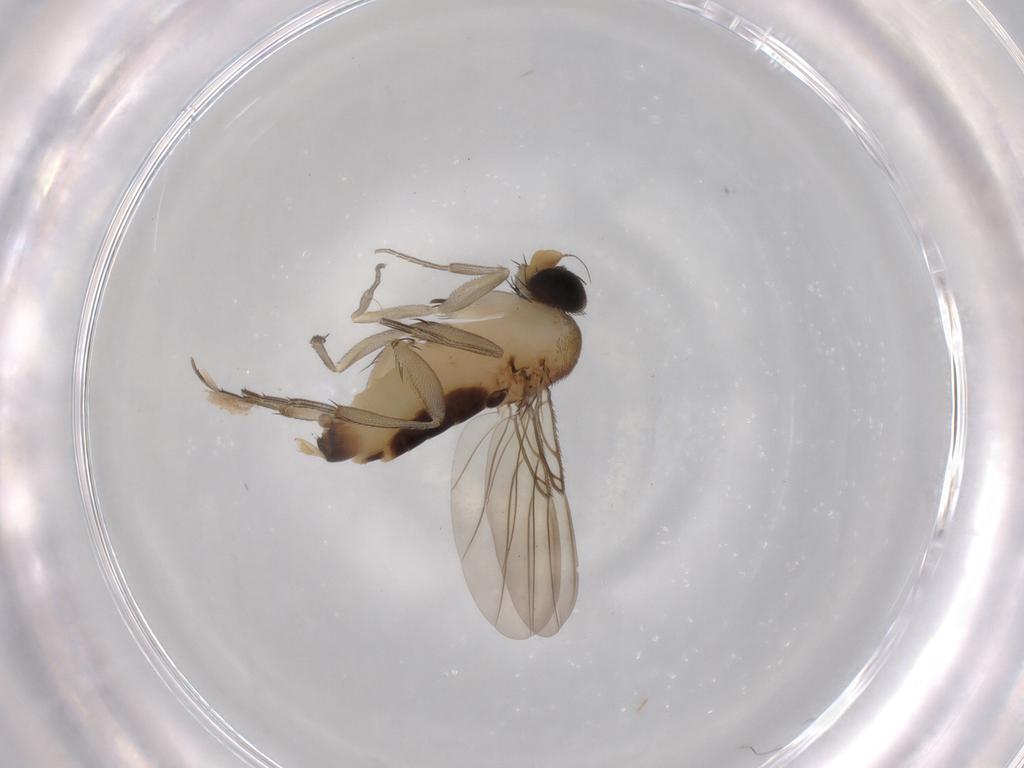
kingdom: Animalia
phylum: Arthropoda
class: Insecta
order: Diptera
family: Phoridae
